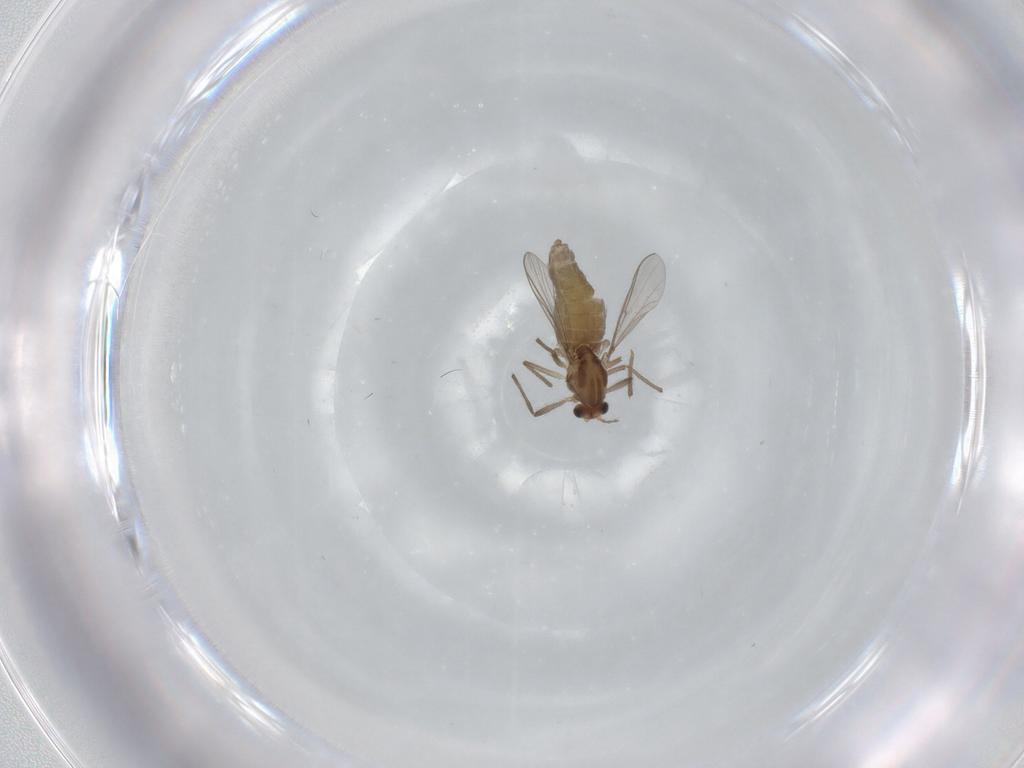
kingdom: Animalia
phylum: Arthropoda
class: Insecta
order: Diptera
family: Chironomidae
